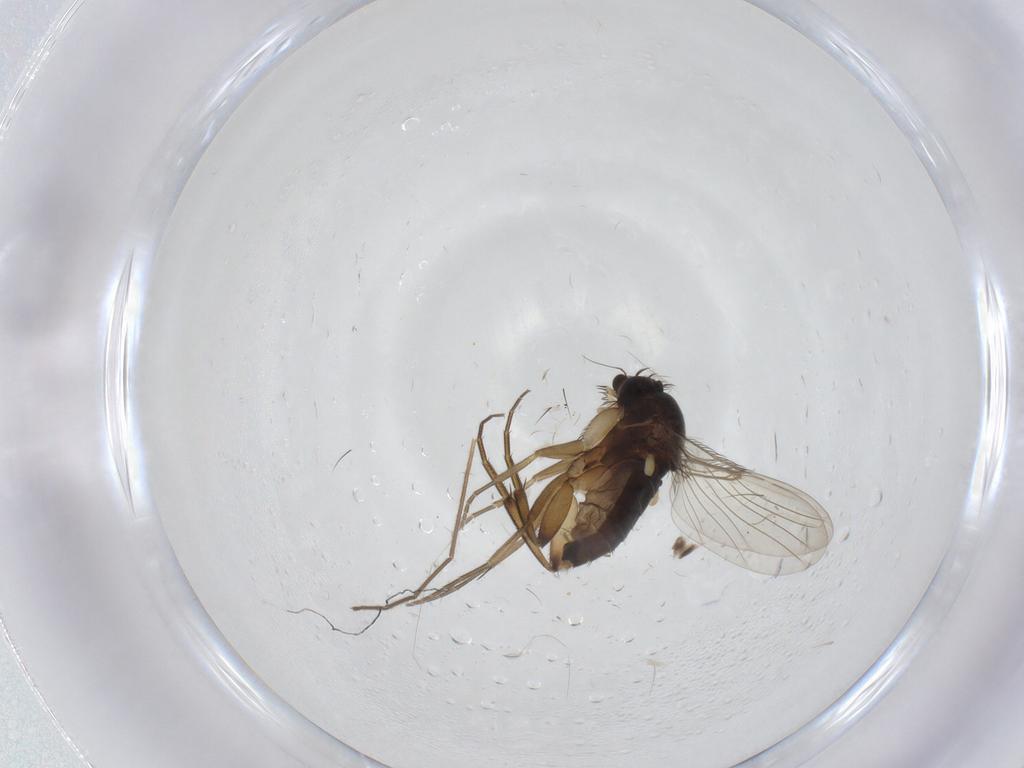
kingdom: Animalia
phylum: Arthropoda
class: Insecta
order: Diptera
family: Phoridae
